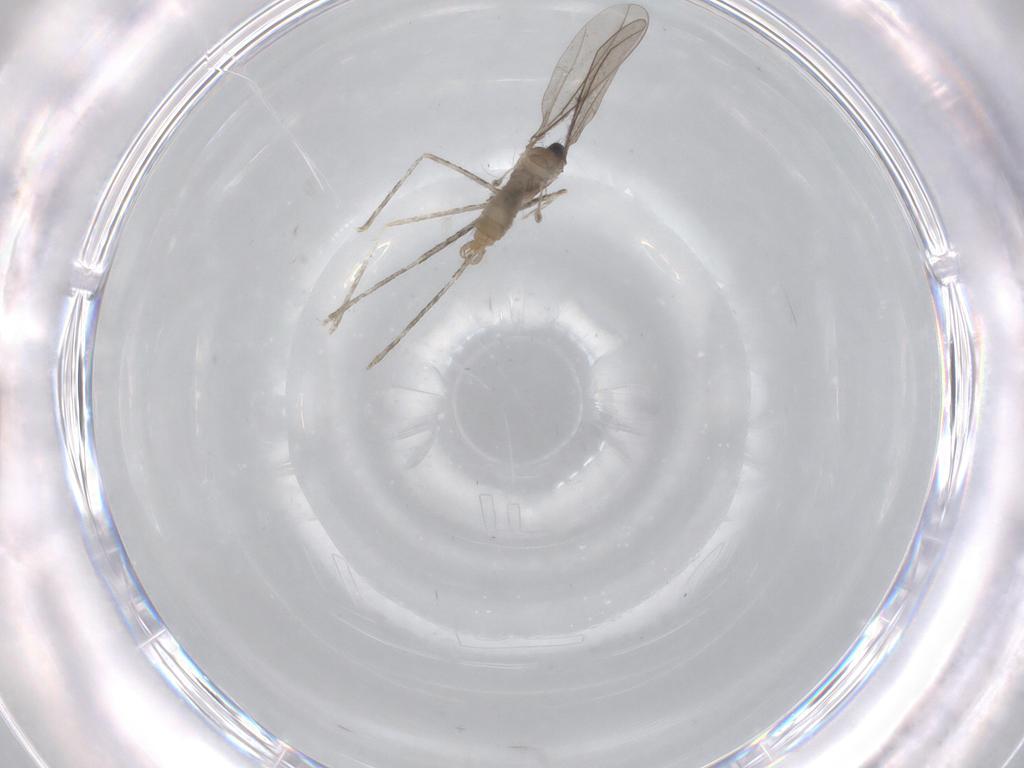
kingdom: Animalia
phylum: Arthropoda
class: Insecta
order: Diptera
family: Cecidomyiidae
